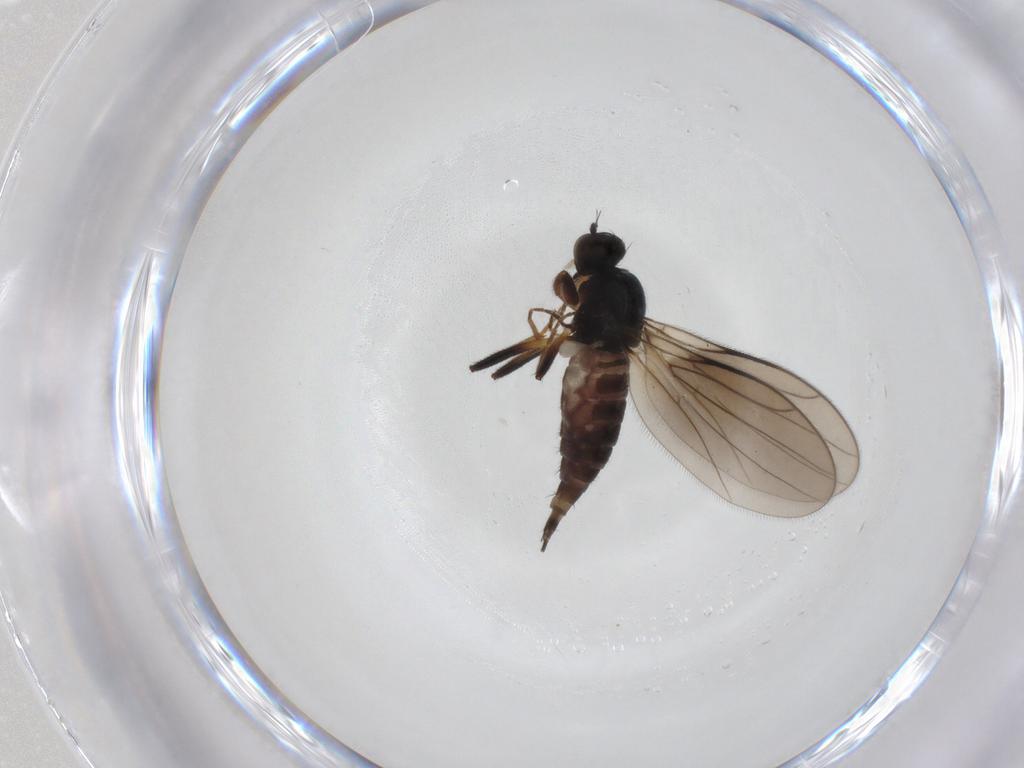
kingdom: Animalia
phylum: Arthropoda
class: Insecta
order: Diptera
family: Hybotidae
